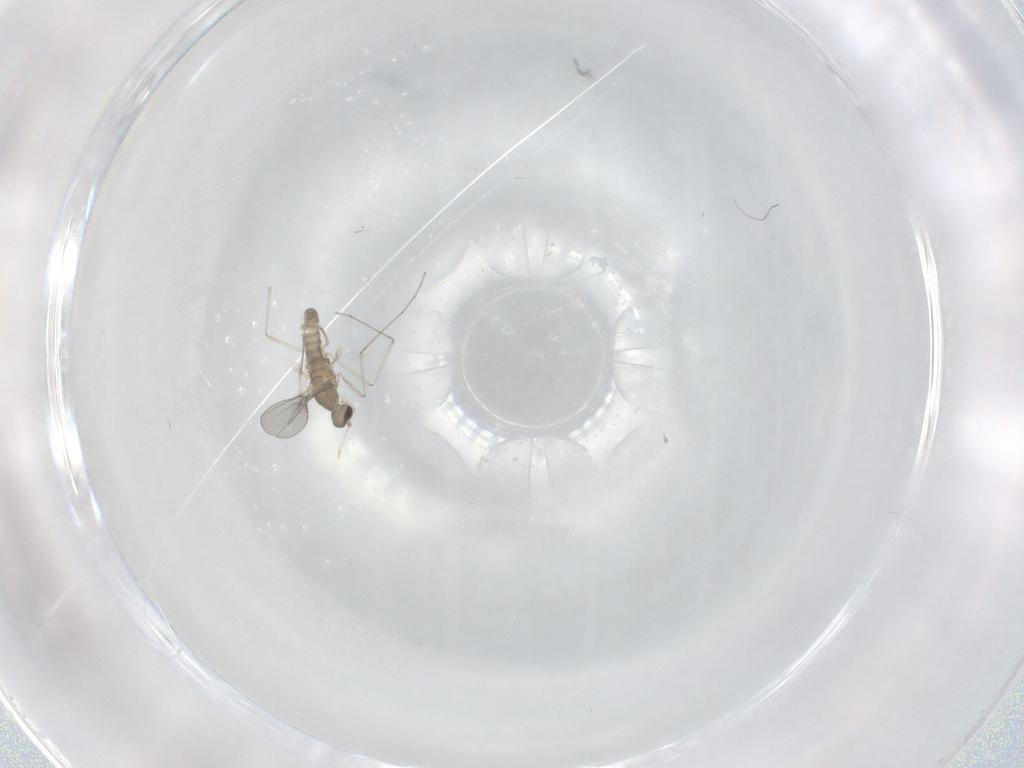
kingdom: Animalia
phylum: Arthropoda
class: Insecta
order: Diptera
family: Cecidomyiidae
